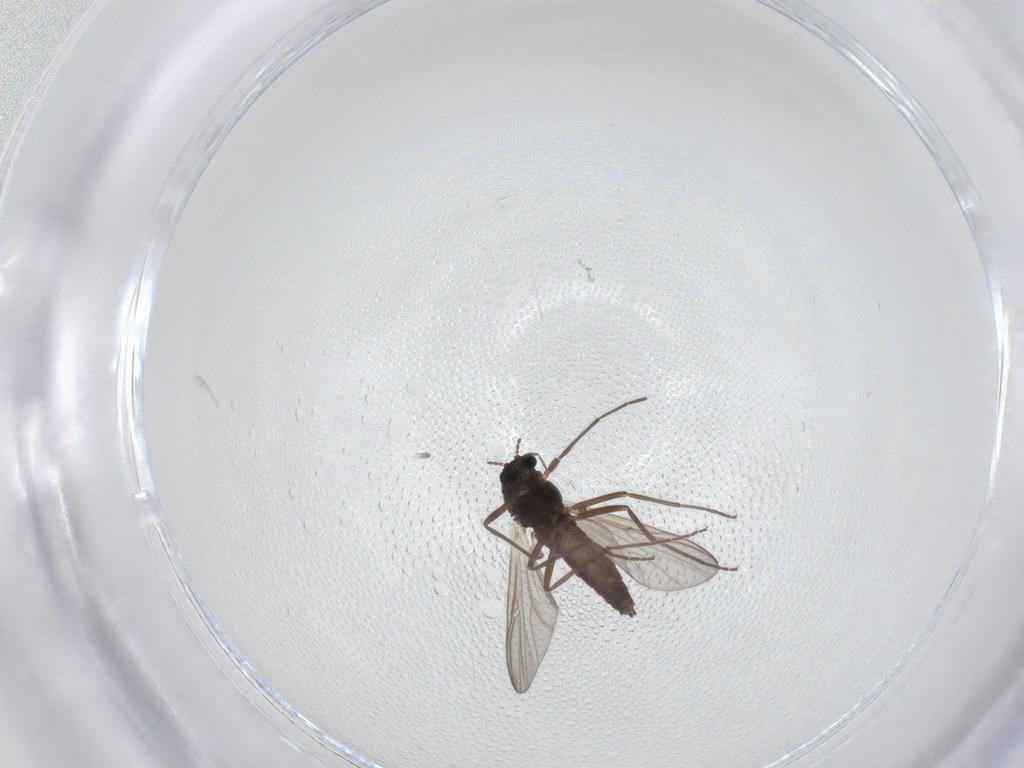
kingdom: Animalia
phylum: Arthropoda
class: Insecta
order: Diptera
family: Chironomidae
